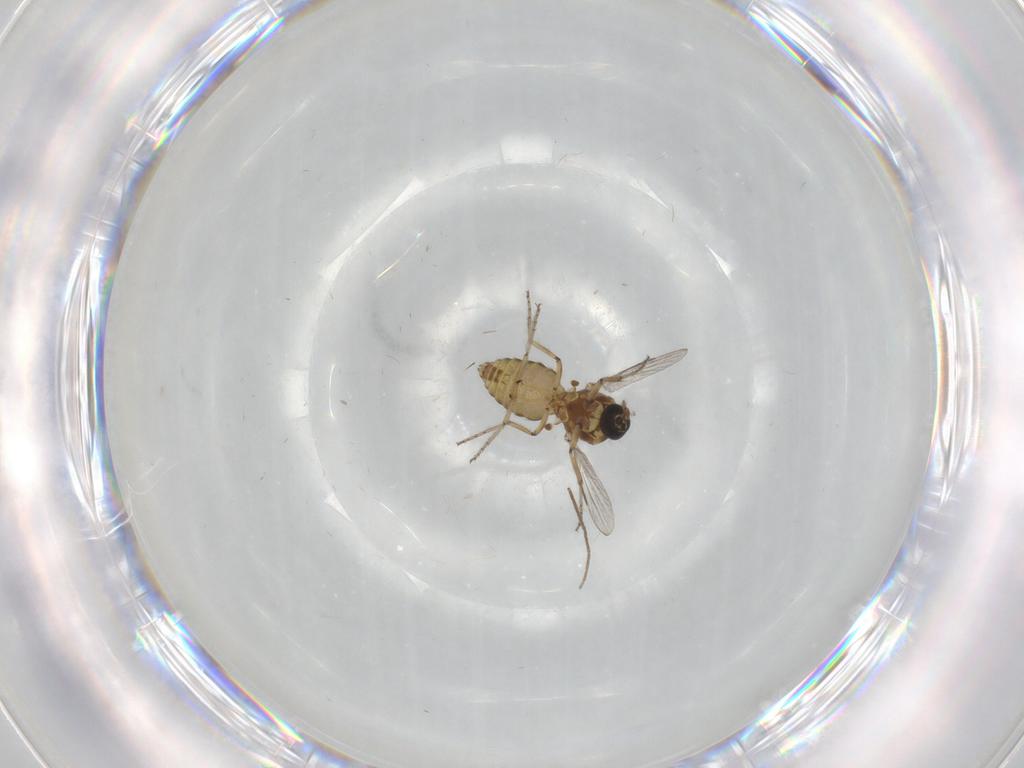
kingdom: Animalia
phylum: Arthropoda
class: Insecta
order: Diptera
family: Ceratopogonidae
